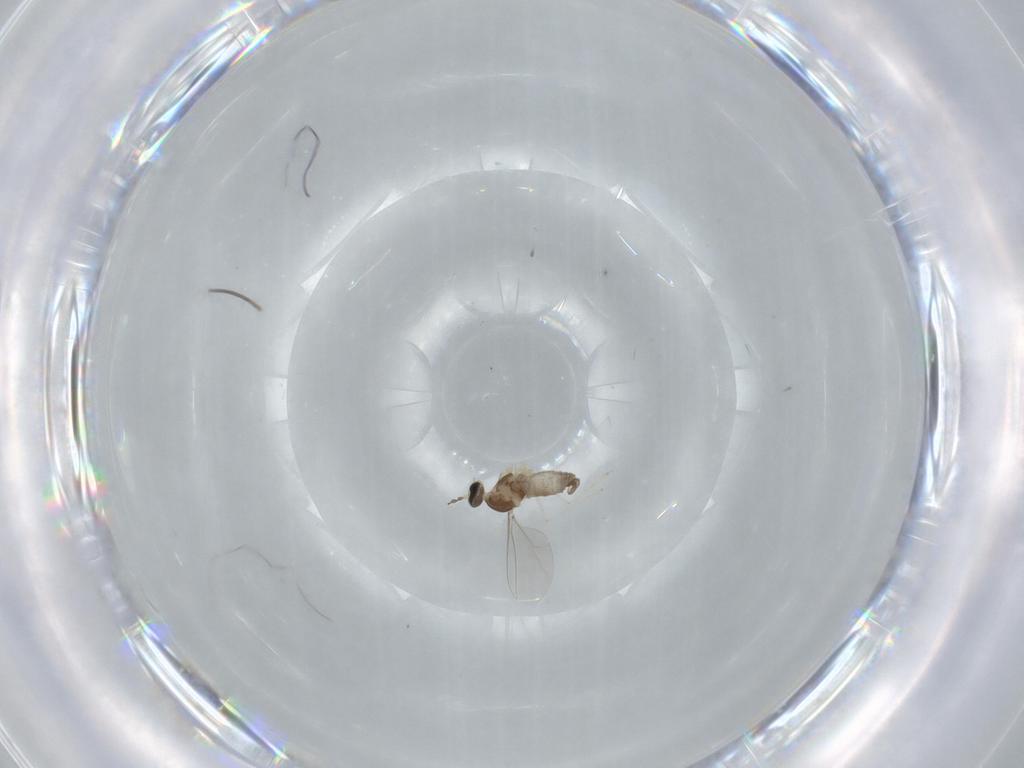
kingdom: Animalia
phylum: Arthropoda
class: Insecta
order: Diptera
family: Cecidomyiidae
